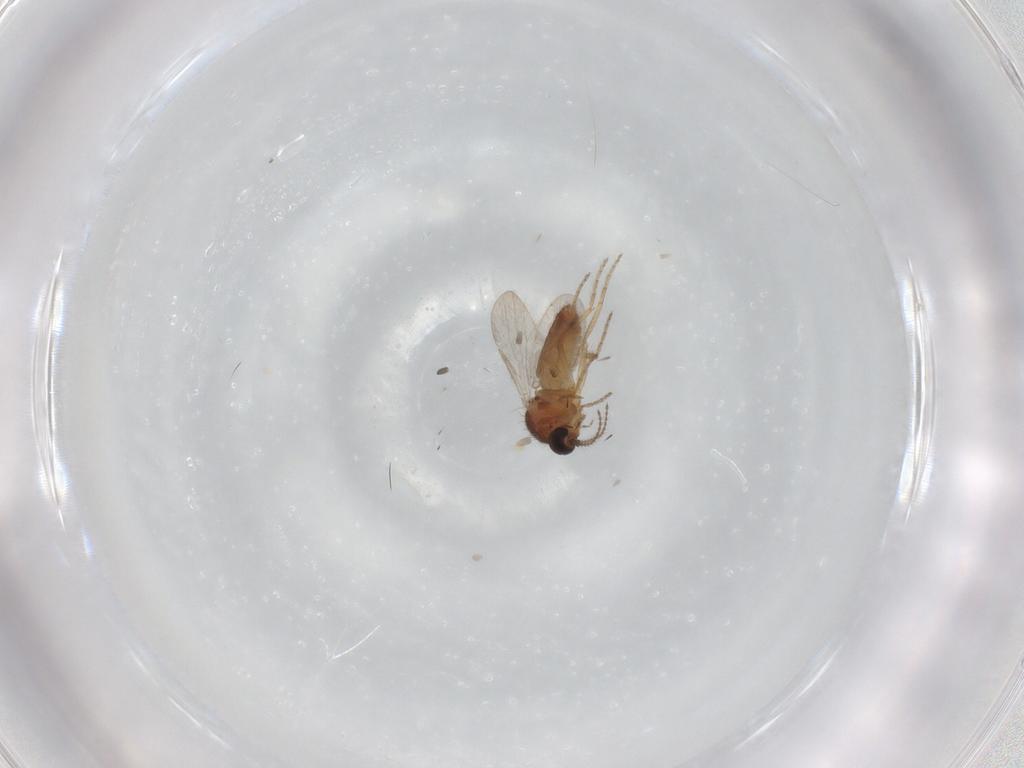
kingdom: Animalia
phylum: Arthropoda
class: Insecta
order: Diptera
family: Ceratopogonidae
